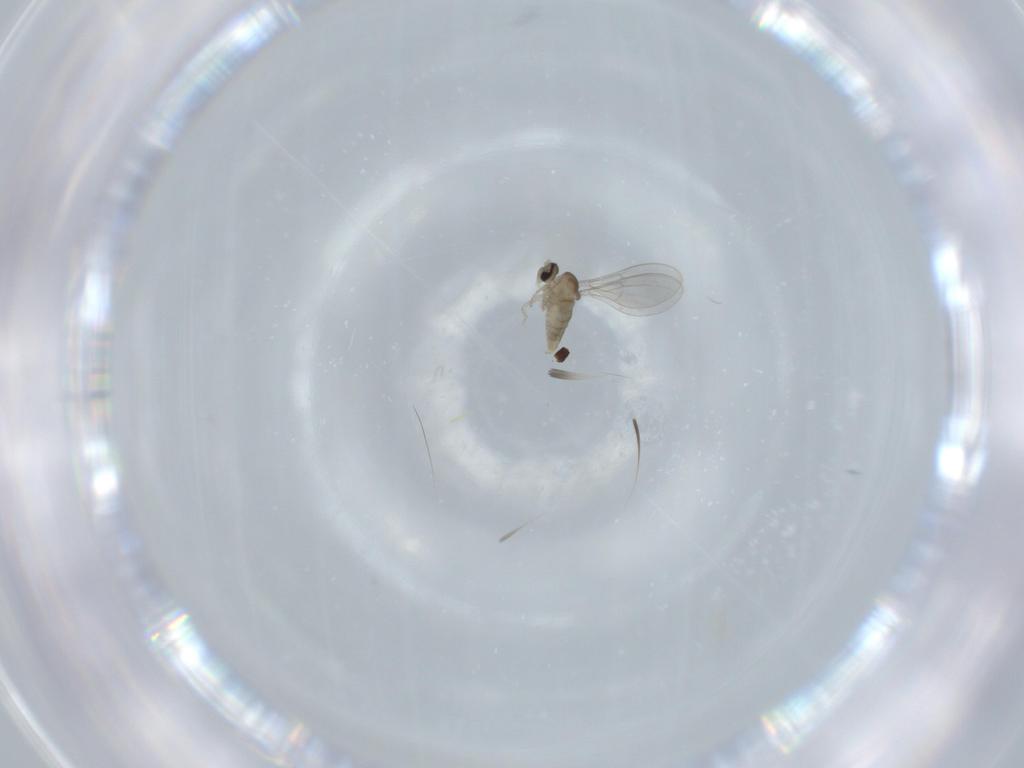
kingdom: Animalia
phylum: Arthropoda
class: Insecta
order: Diptera
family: Cecidomyiidae
